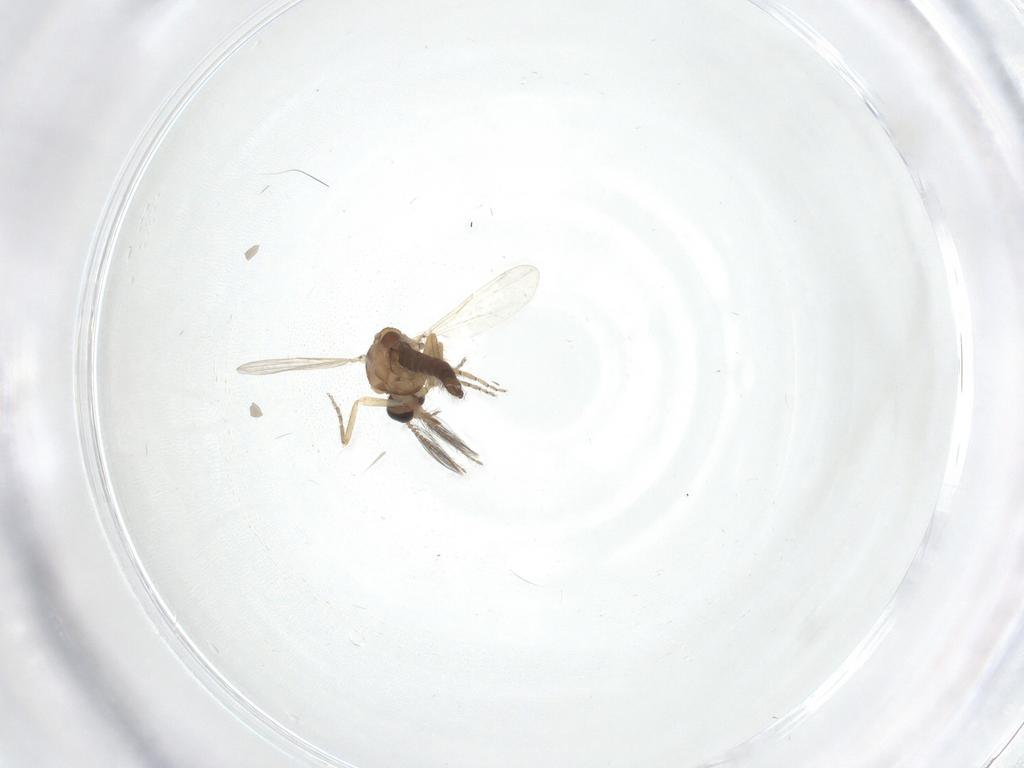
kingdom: Animalia
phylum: Arthropoda
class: Insecta
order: Diptera
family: Ceratopogonidae
